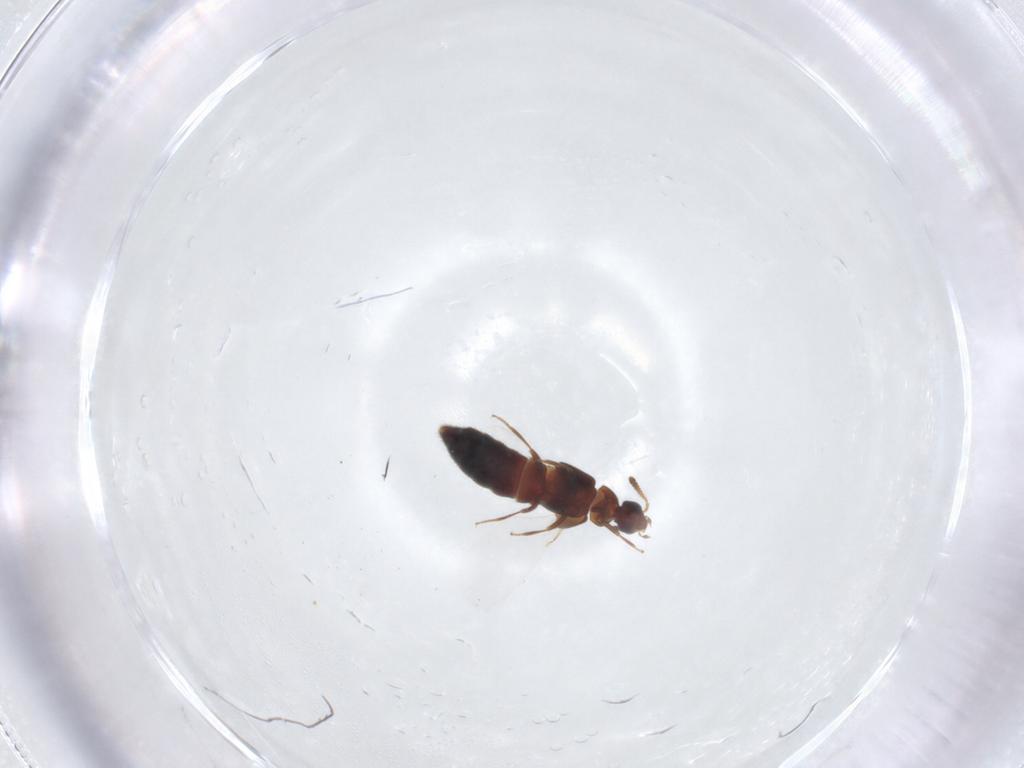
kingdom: Animalia
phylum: Arthropoda
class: Insecta
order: Coleoptera
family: Staphylinidae
